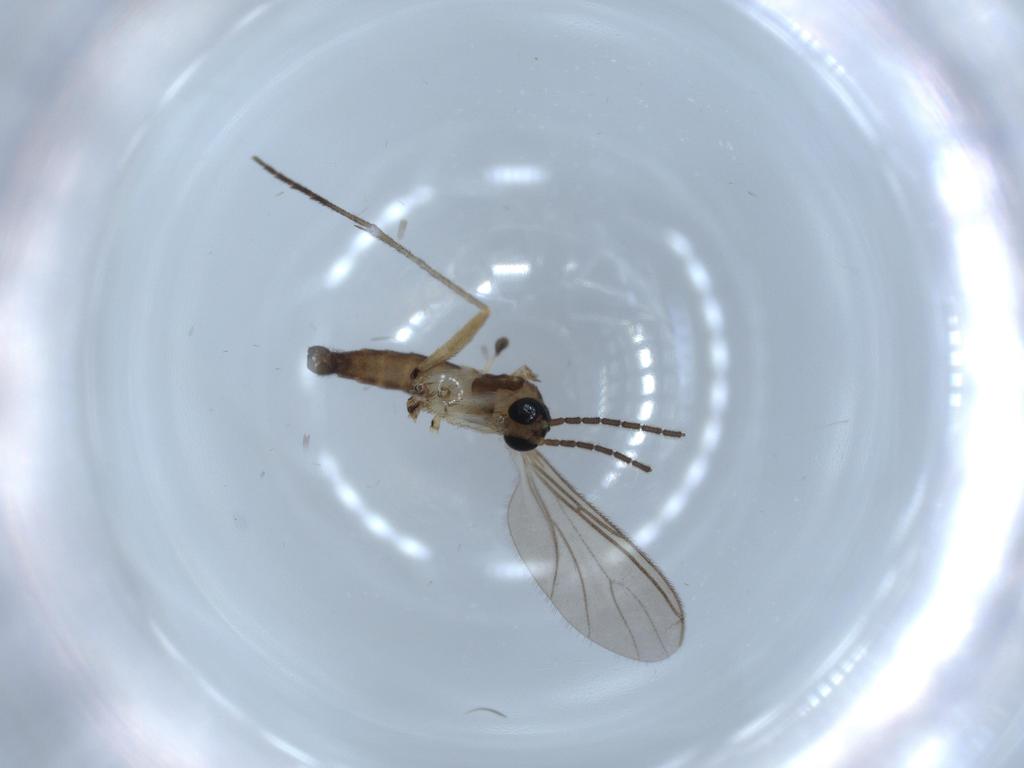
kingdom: Animalia
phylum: Arthropoda
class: Insecta
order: Diptera
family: Sciaridae
